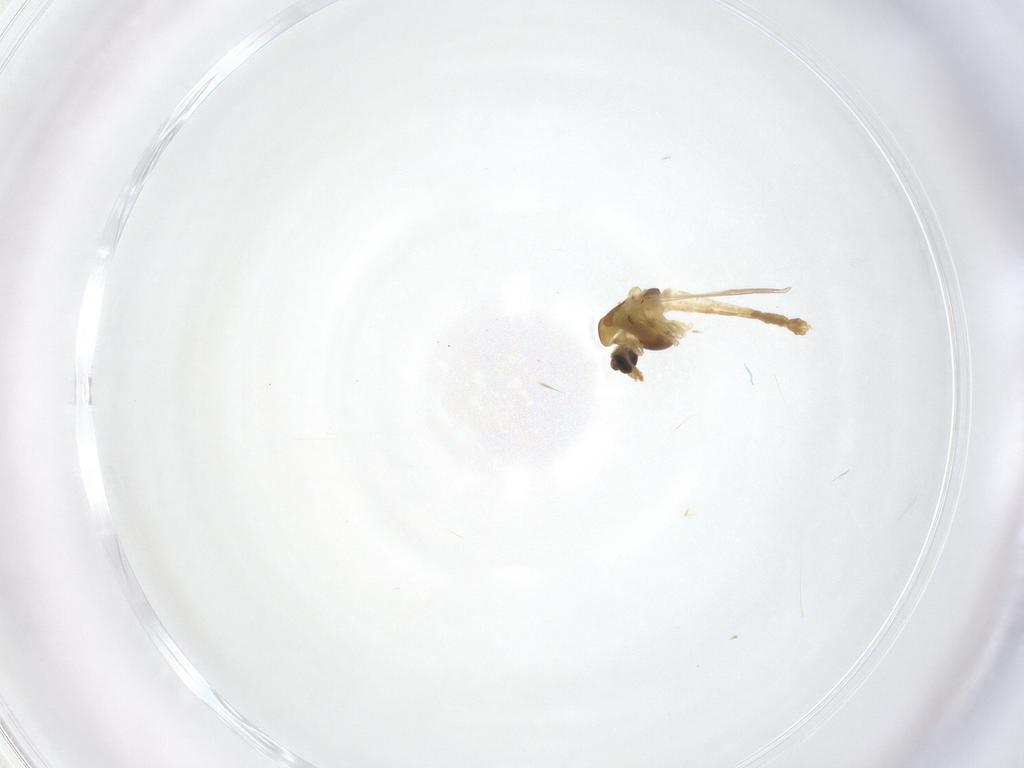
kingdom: Animalia
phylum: Arthropoda
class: Insecta
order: Diptera
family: Chironomidae
